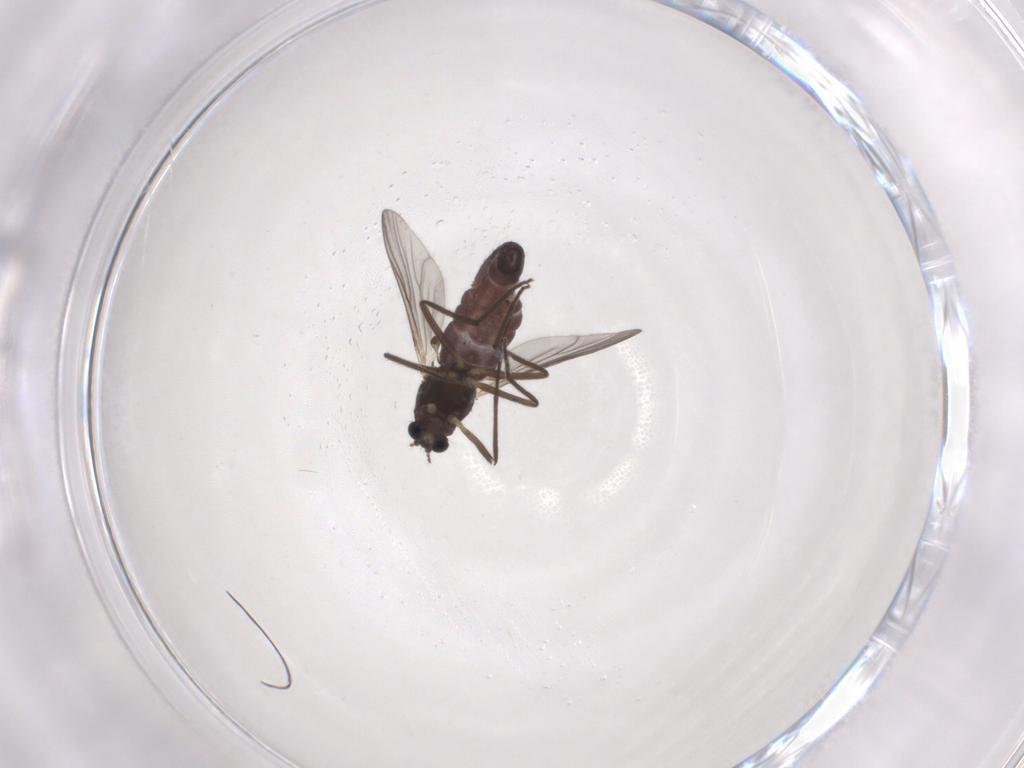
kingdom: Animalia
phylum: Arthropoda
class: Insecta
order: Diptera
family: Chironomidae
